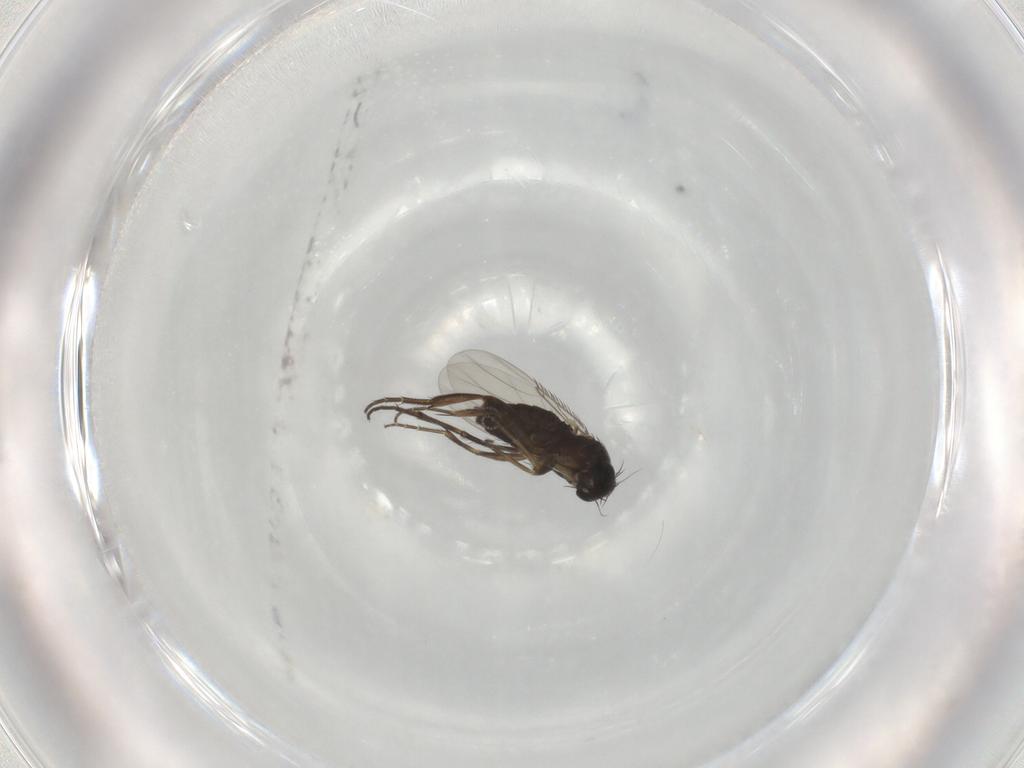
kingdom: Animalia
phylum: Arthropoda
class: Insecta
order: Diptera
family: Phoridae
